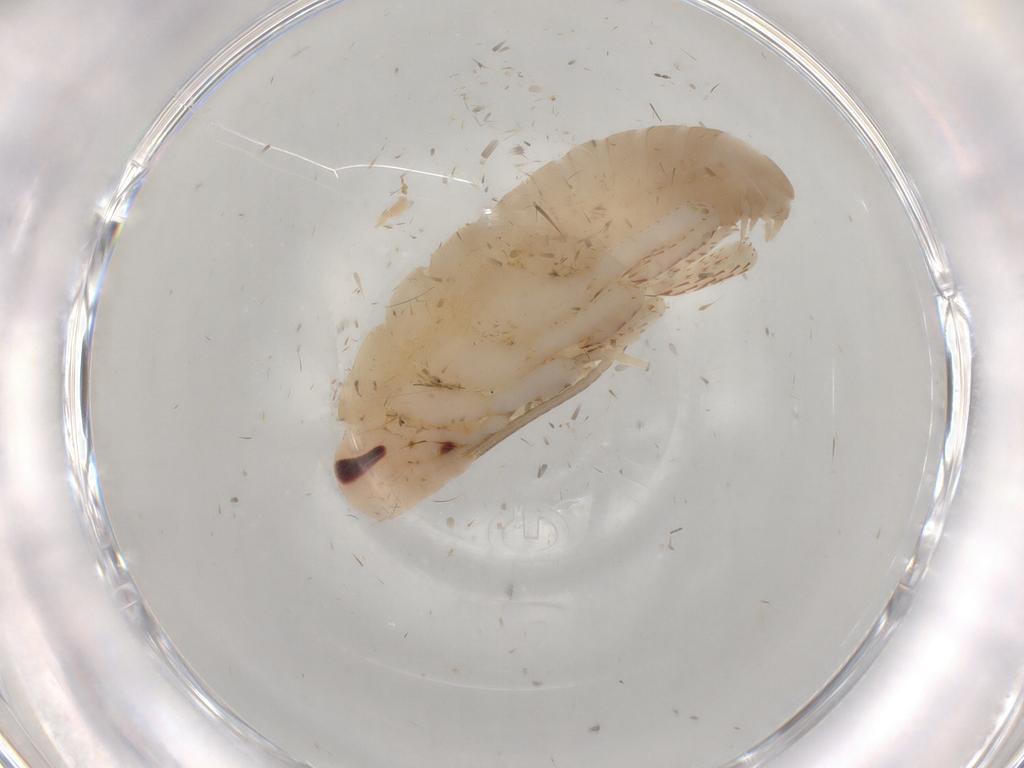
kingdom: Animalia
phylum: Arthropoda
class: Insecta
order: Blattodea
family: Blaberidae
